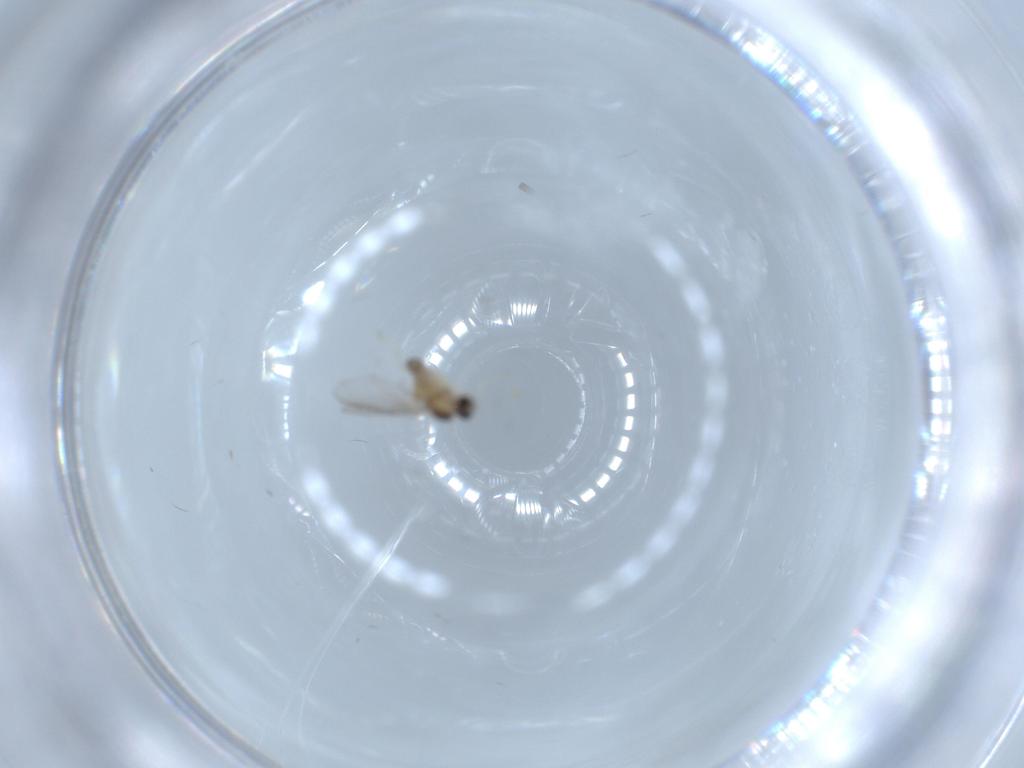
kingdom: Animalia
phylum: Arthropoda
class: Insecta
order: Diptera
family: Cecidomyiidae
